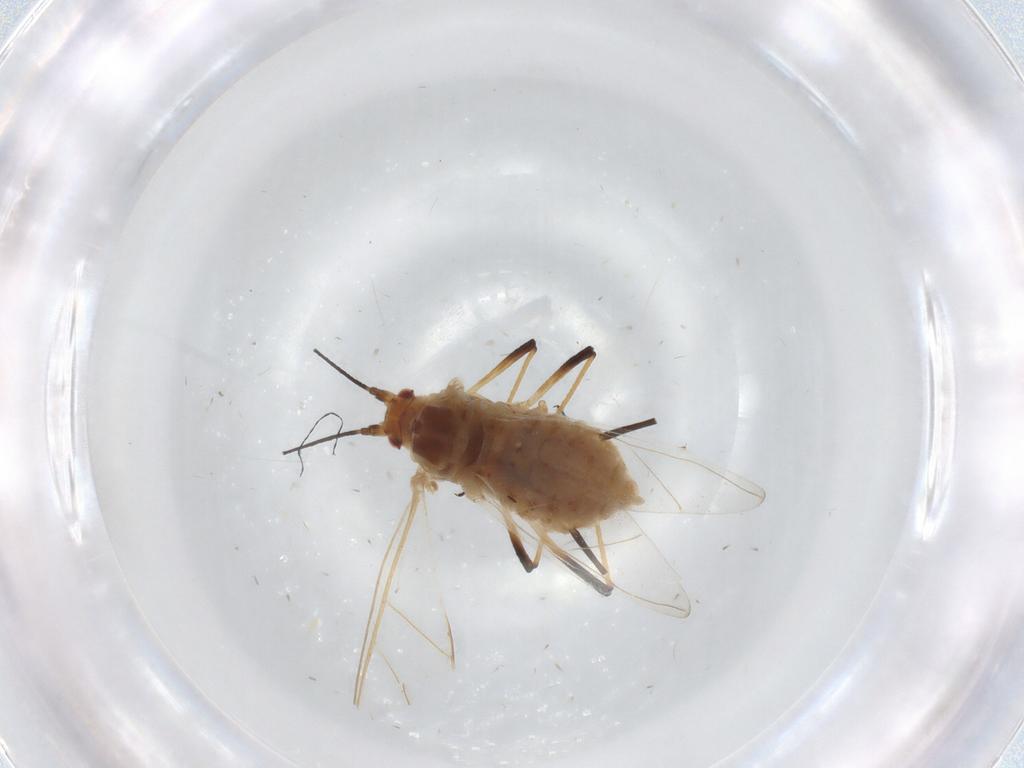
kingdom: Animalia
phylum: Arthropoda
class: Insecta
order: Hemiptera
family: Aphididae
